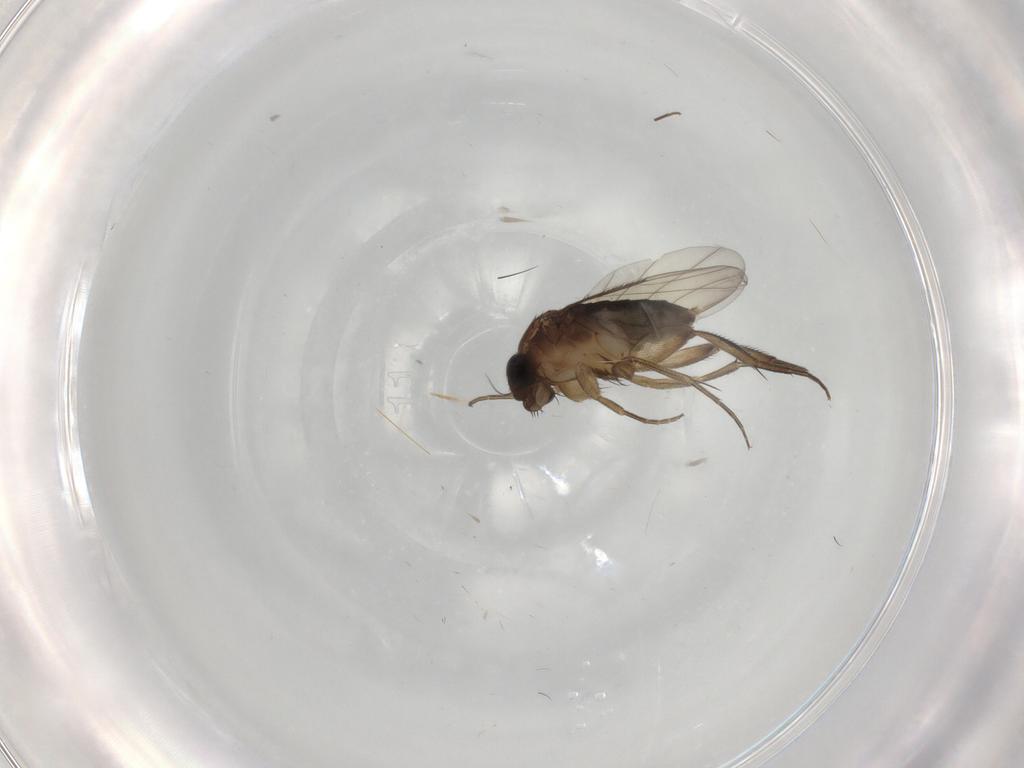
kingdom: Animalia
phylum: Arthropoda
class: Insecta
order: Diptera
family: Phoridae
